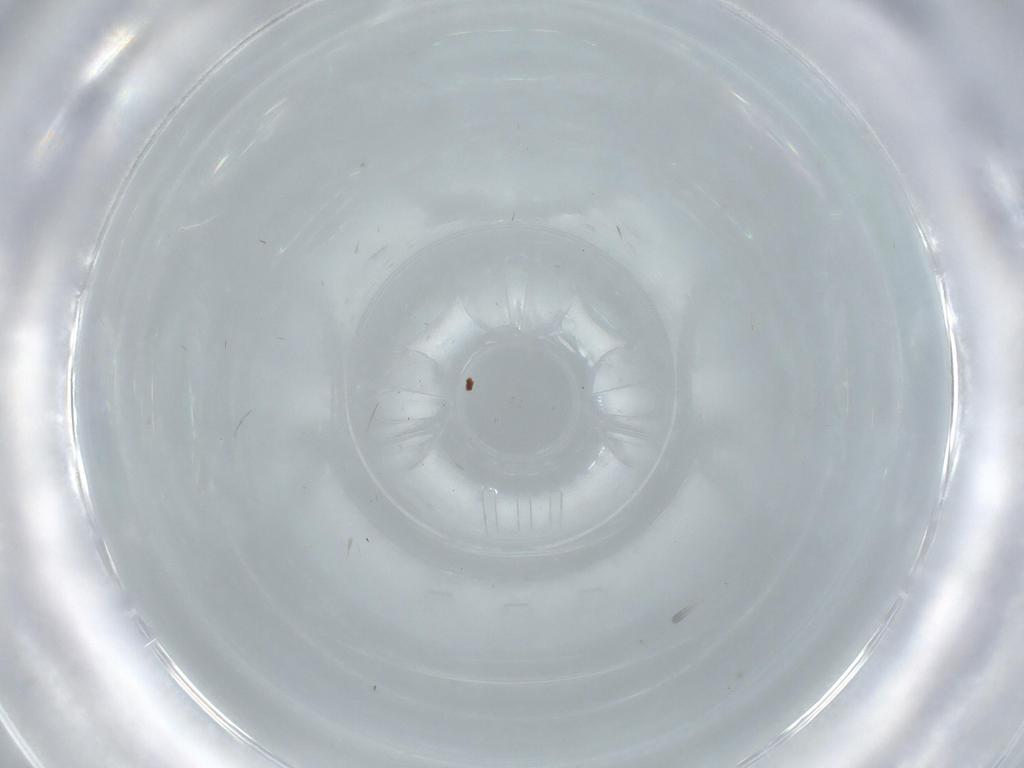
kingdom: Animalia
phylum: Arthropoda
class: Insecta
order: Diptera
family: Cecidomyiidae
